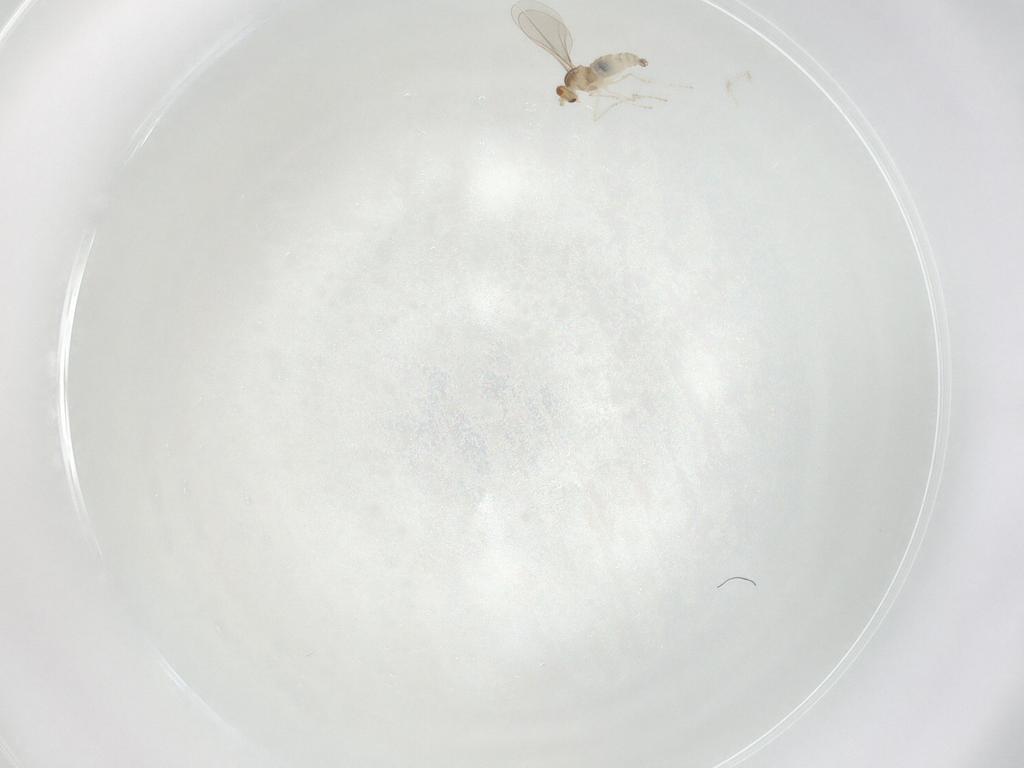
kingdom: Animalia
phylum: Arthropoda
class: Insecta
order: Diptera
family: Cecidomyiidae
